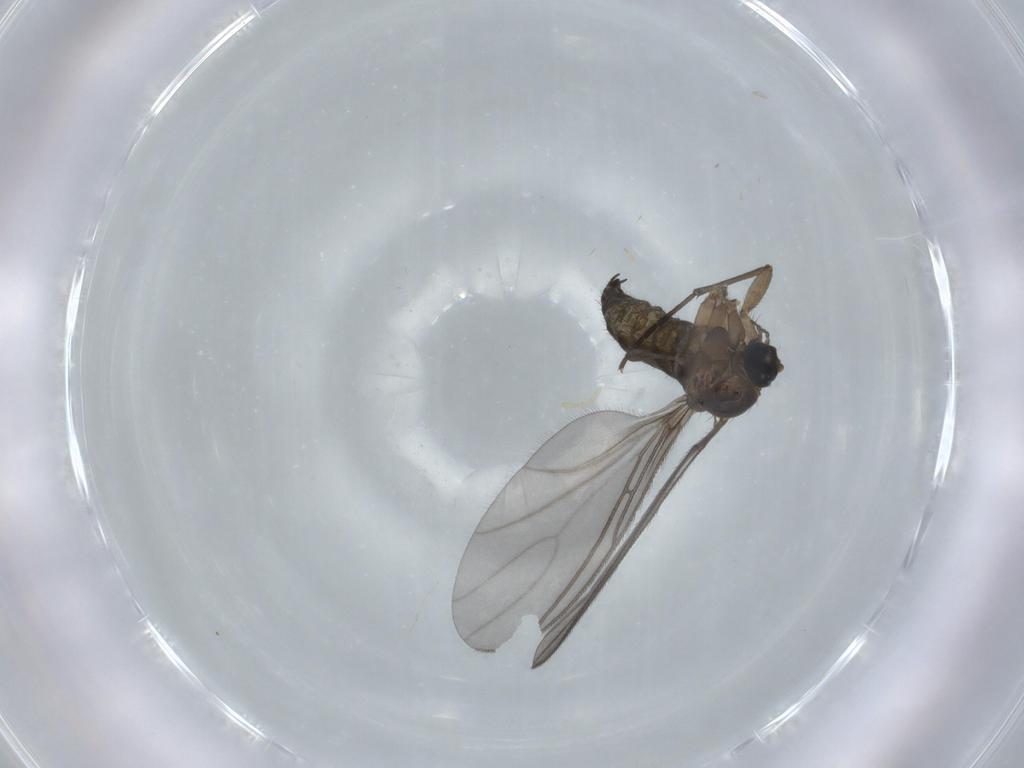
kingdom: Animalia
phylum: Arthropoda
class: Insecta
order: Diptera
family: Sciaridae
